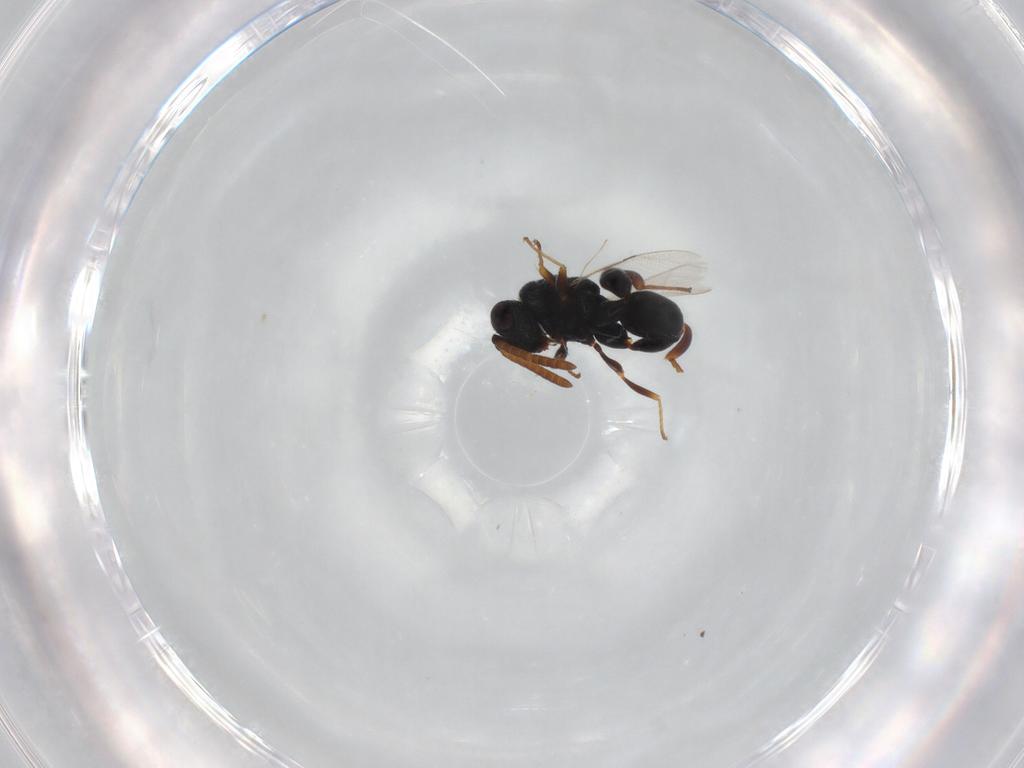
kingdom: Animalia
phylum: Arthropoda
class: Insecta
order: Hymenoptera
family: Chalcididae
